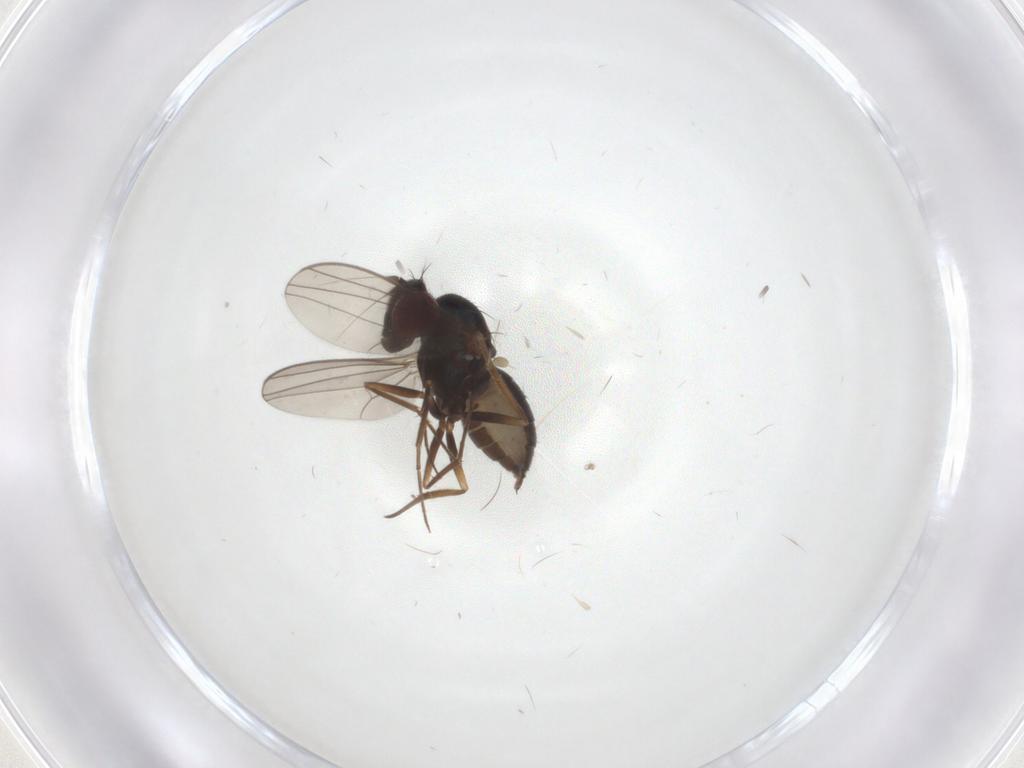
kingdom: Animalia
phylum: Arthropoda
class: Insecta
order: Diptera
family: Dolichopodidae
